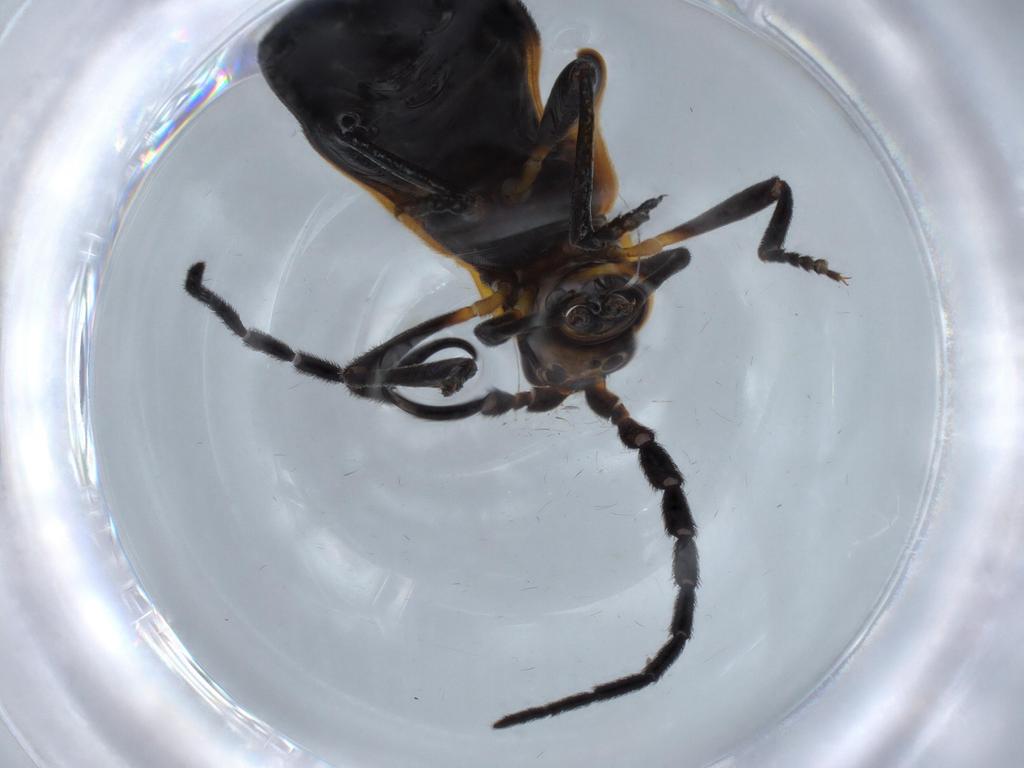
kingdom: Animalia
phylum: Arthropoda
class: Insecta
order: Coleoptera
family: Lycidae
